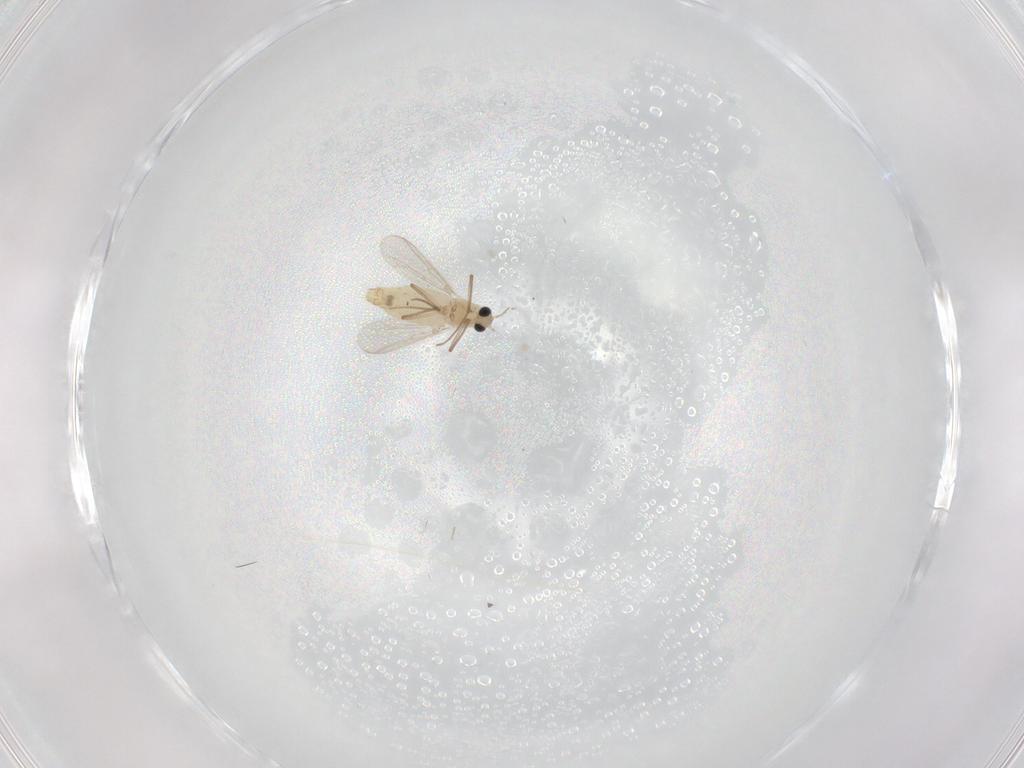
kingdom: Animalia
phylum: Arthropoda
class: Insecta
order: Diptera
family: Chironomidae
